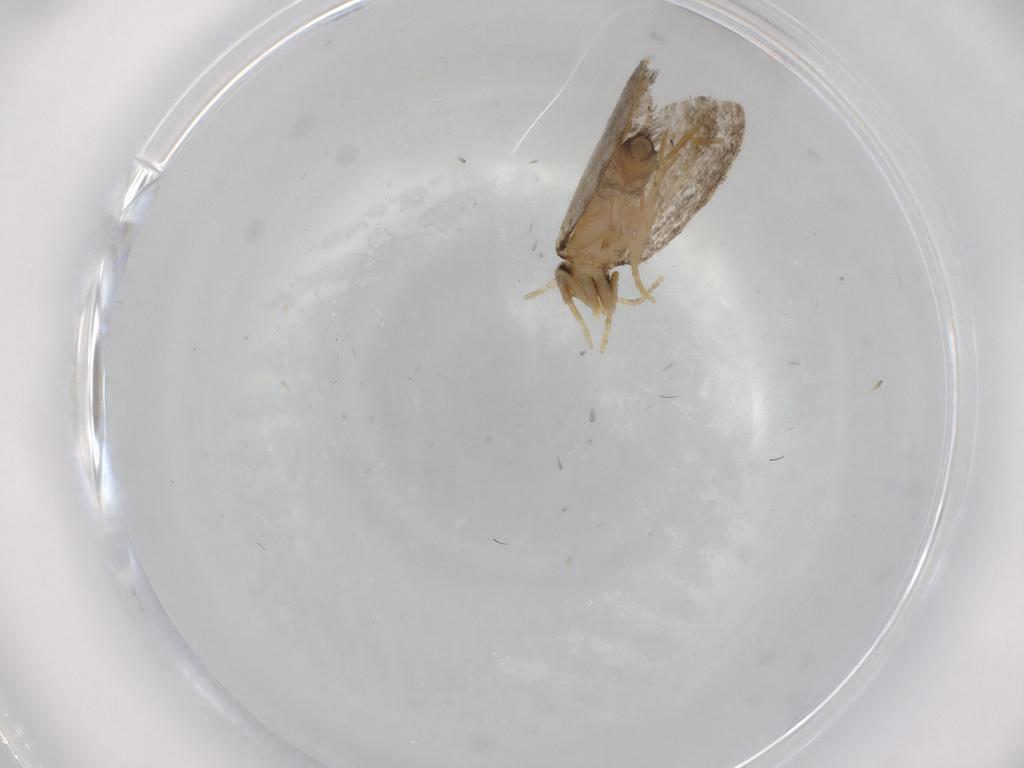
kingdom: Animalia
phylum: Arthropoda
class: Insecta
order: Lepidoptera
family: Psychidae
